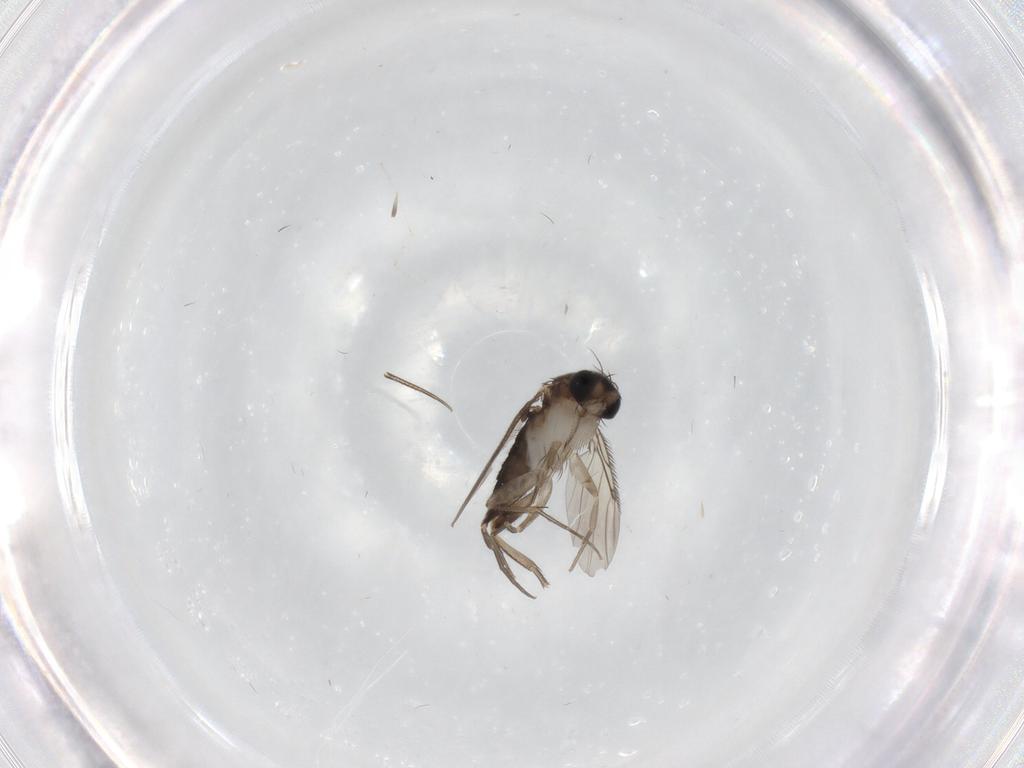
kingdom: Animalia
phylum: Arthropoda
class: Insecta
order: Diptera
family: Phoridae
